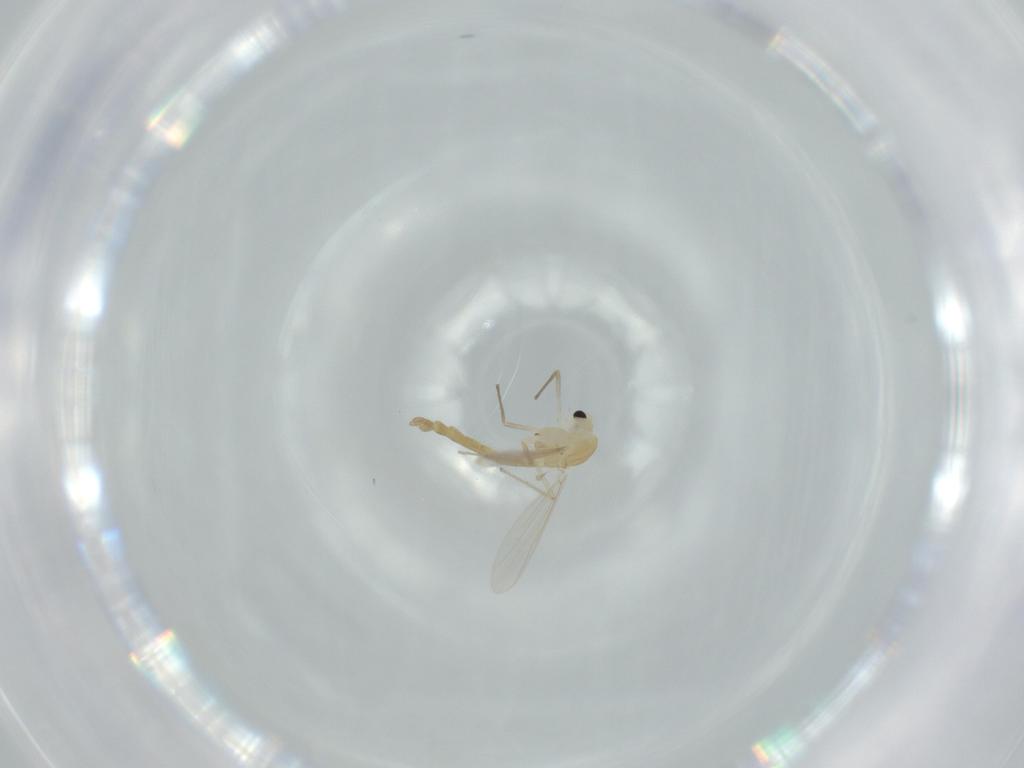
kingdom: Animalia
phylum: Arthropoda
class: Insecta
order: Diptera
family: Chironomidae
